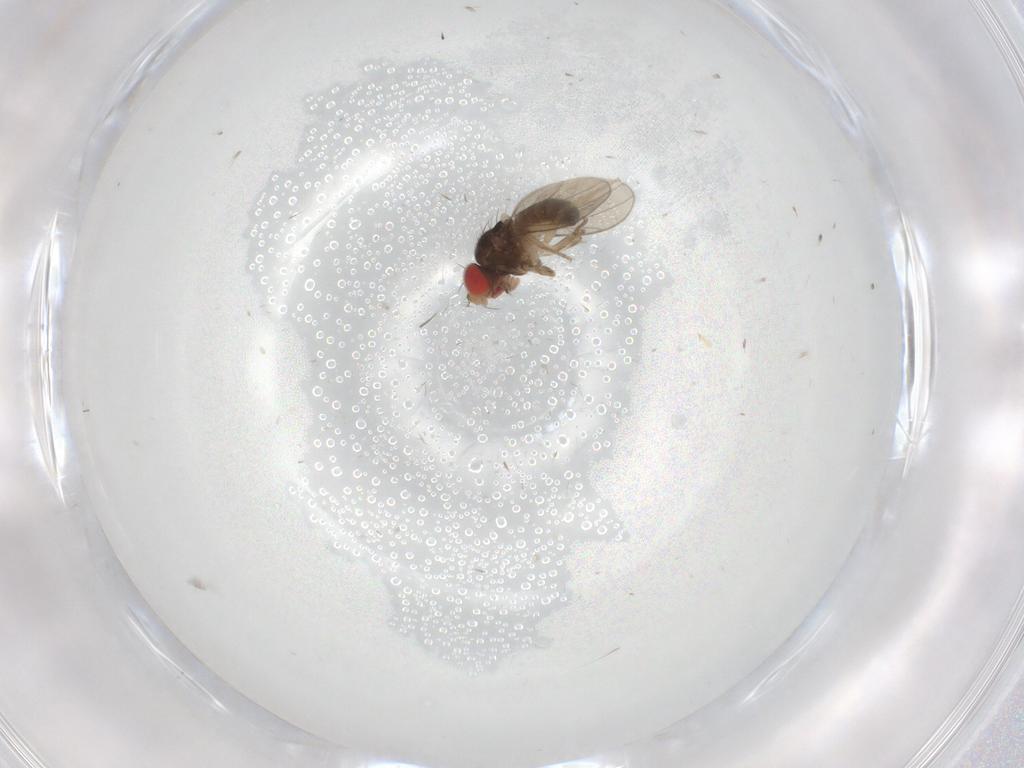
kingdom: Animalia
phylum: Arthropoda
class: Insecta
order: Diptera
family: Drosophilidae
